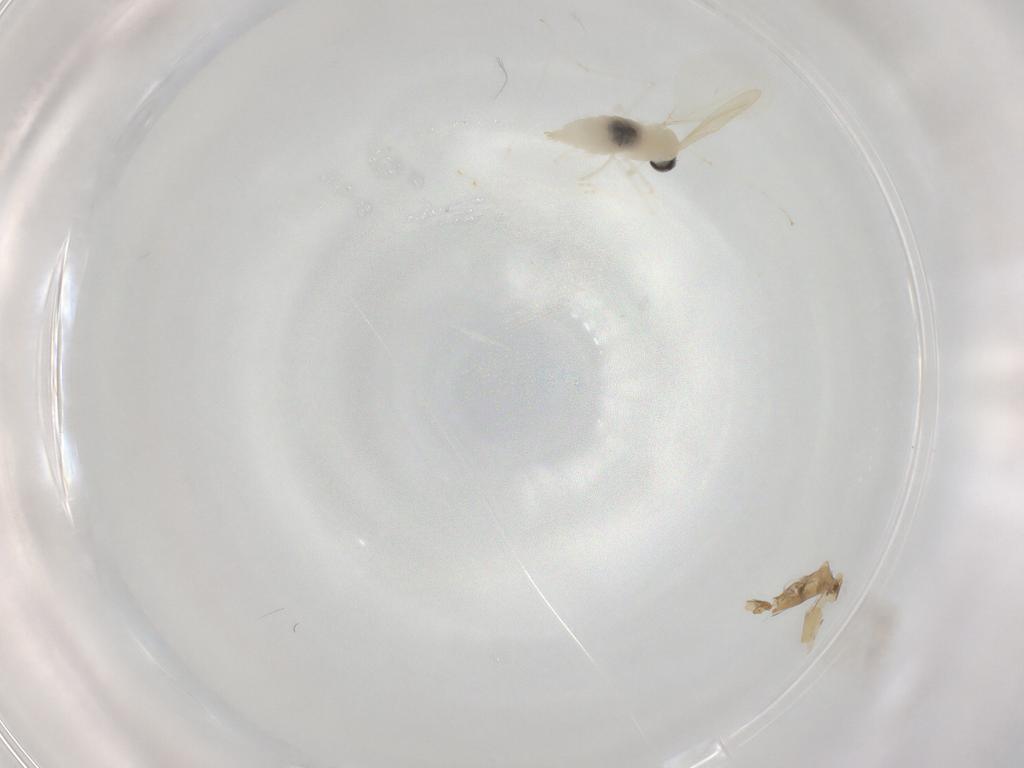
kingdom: Animalia
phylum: Arthropoda
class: Insecta
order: Diptera
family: Cecidomyiidae
